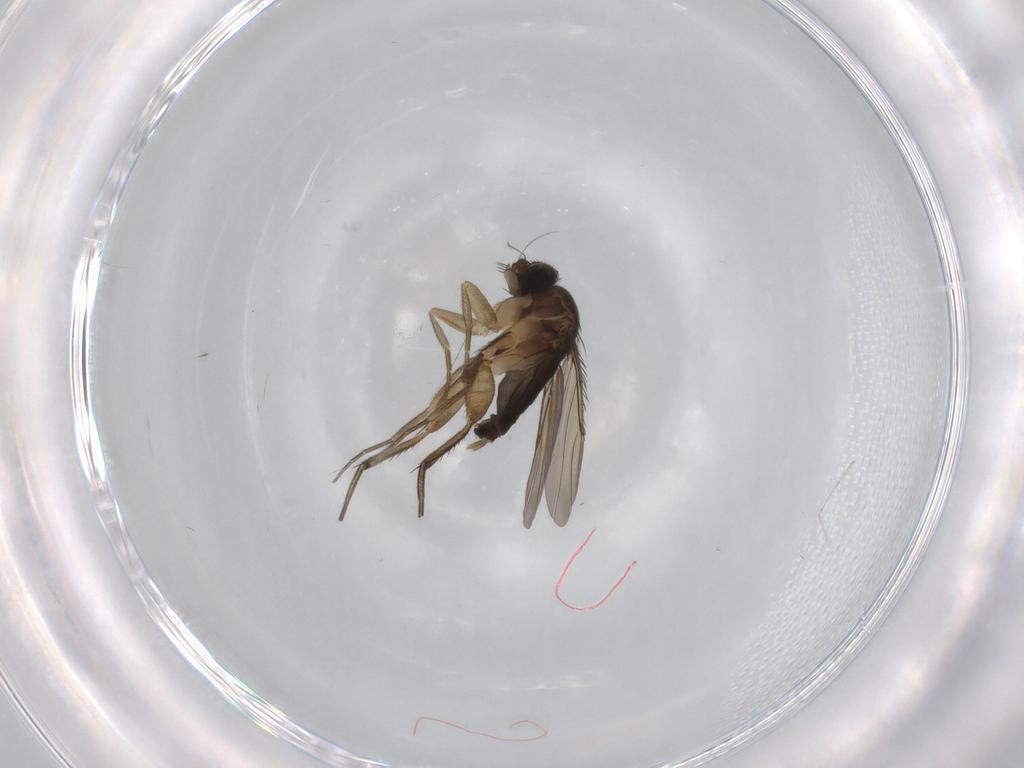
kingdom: Animalia
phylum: Arthropoda
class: Insecta
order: Diptera
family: Phoridae
